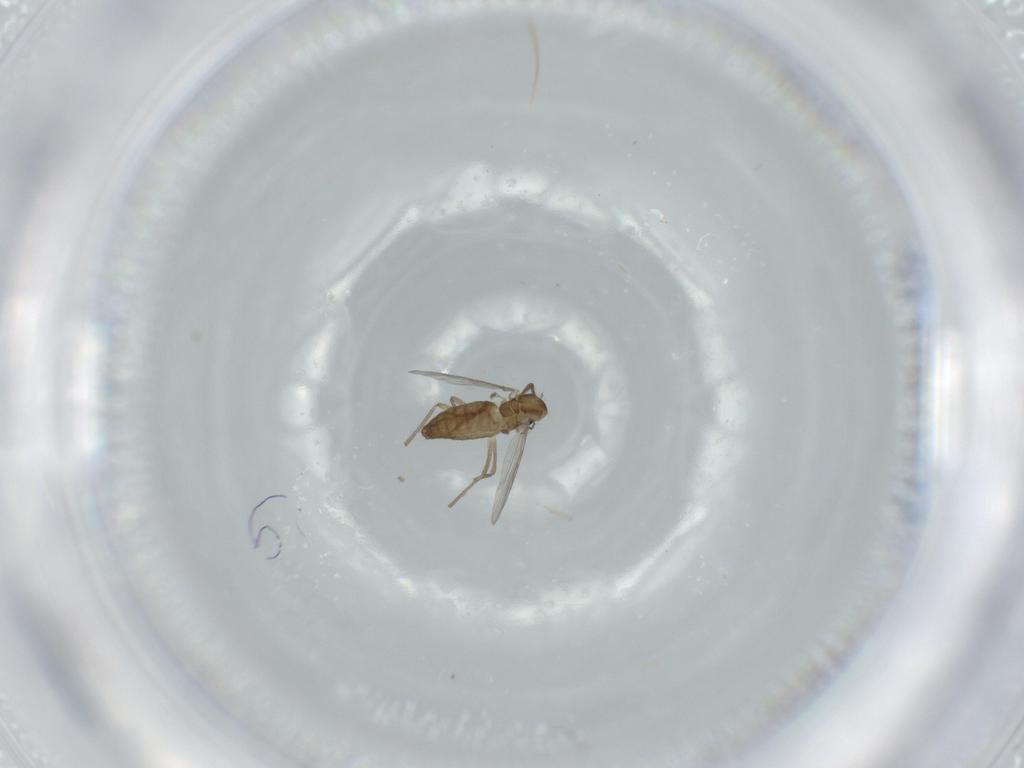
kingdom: Animalia
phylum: Arthropoda
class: Insecta
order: Diptera
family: Chironomidae
